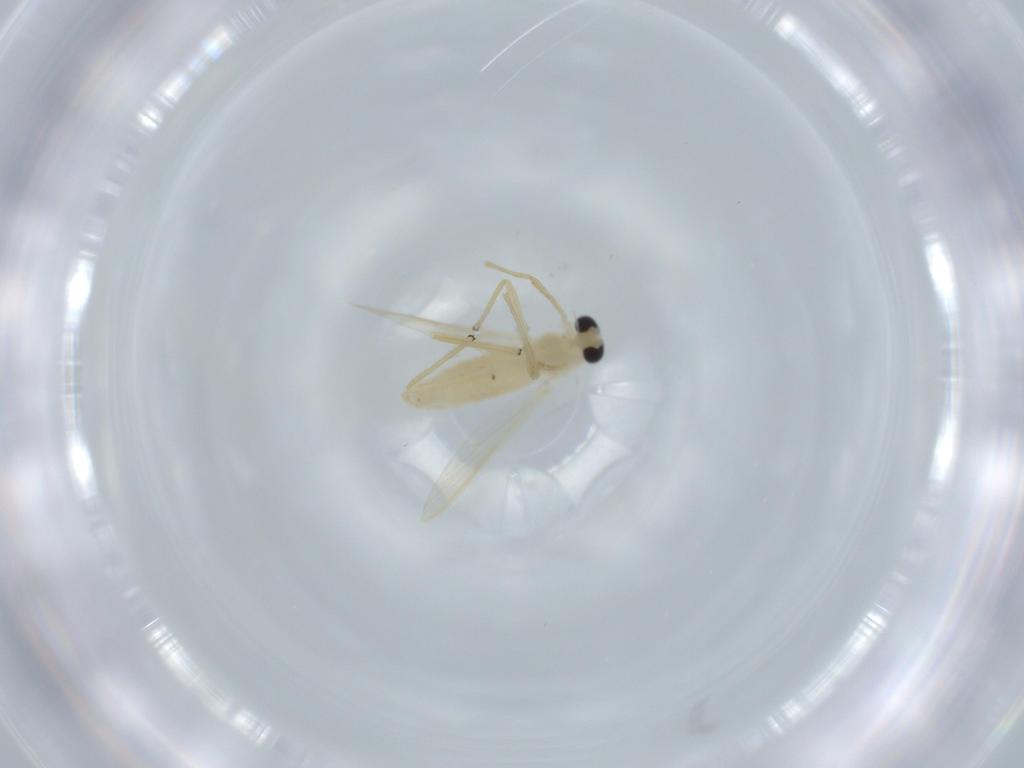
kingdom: Animalia
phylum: Arthropoda
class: Insecta
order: Diptera
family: Chironomidae
